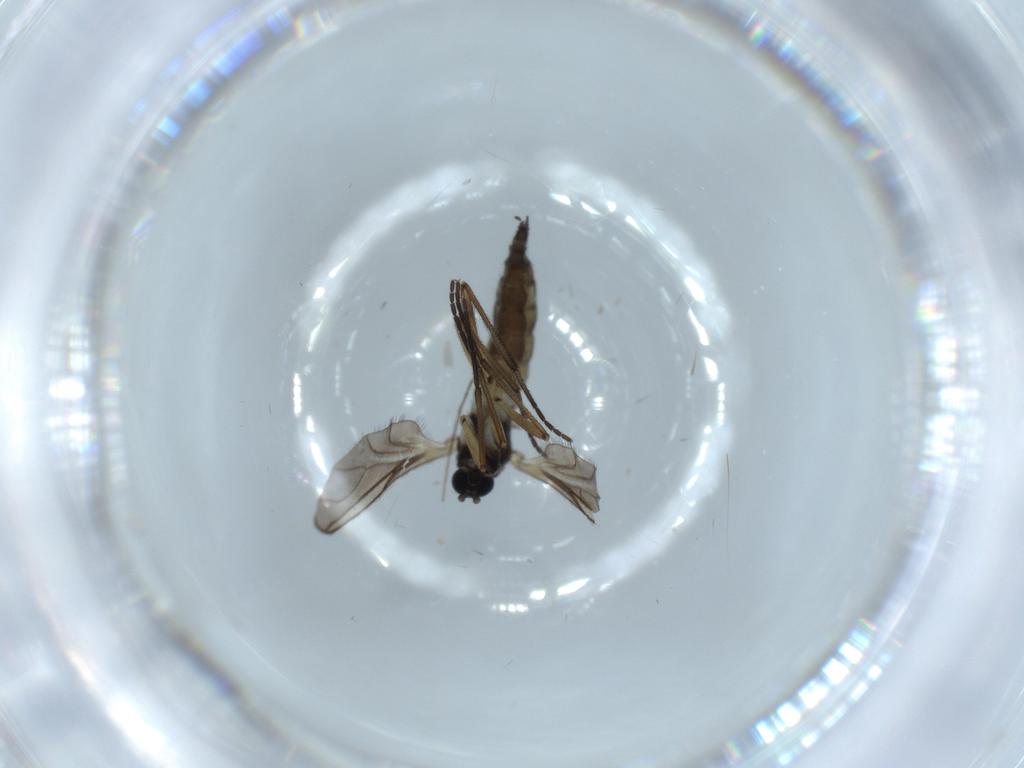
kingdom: Animalia
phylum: Arthropoda
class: Insecta
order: Diptera
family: Sciaridae
